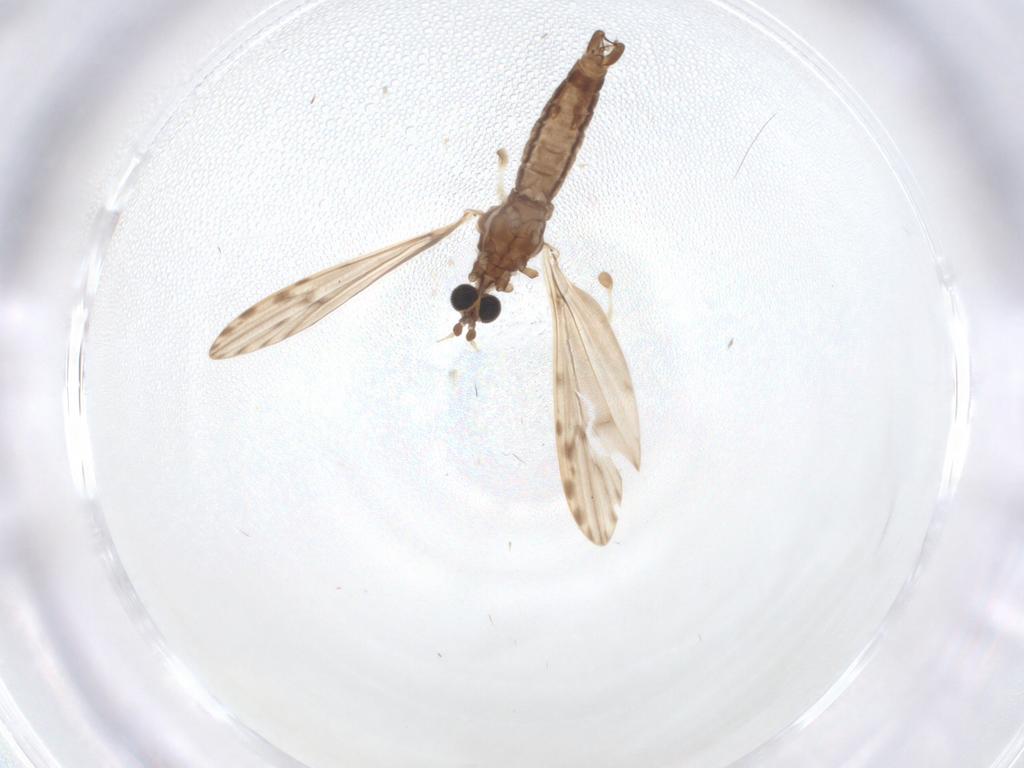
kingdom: Animalia
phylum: Arthropoda
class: Insecta
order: Diptera
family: Limoniidae
